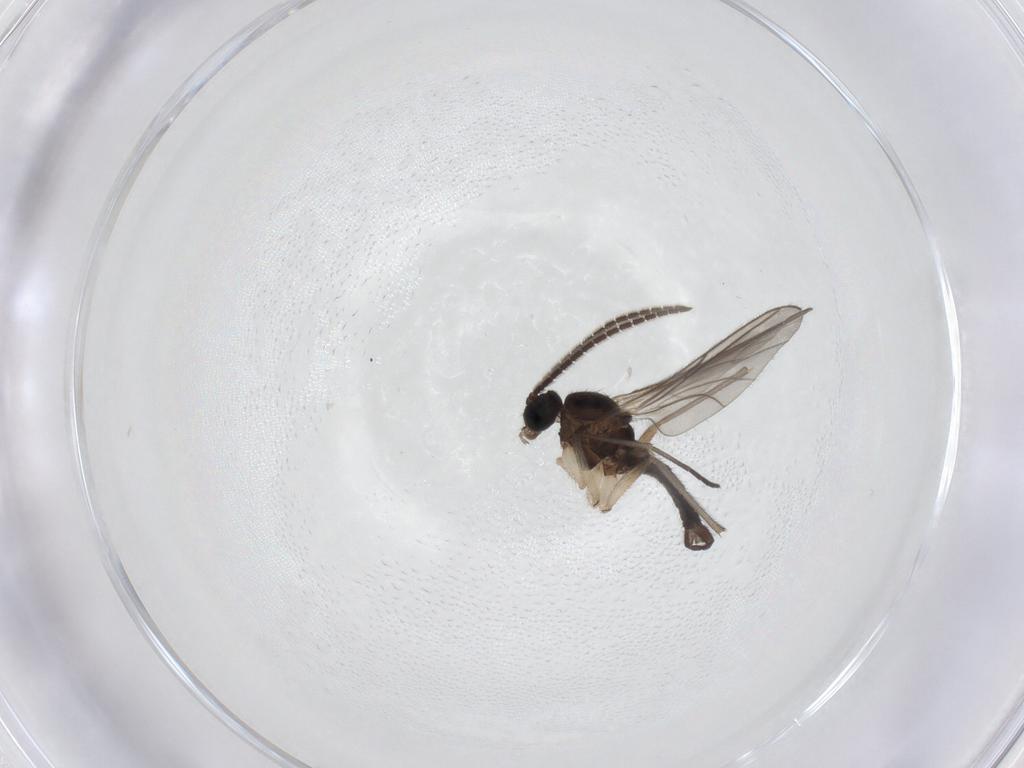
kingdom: Animalia
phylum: Arthropoda
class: Insecta
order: Diptera
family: Sciaridae
